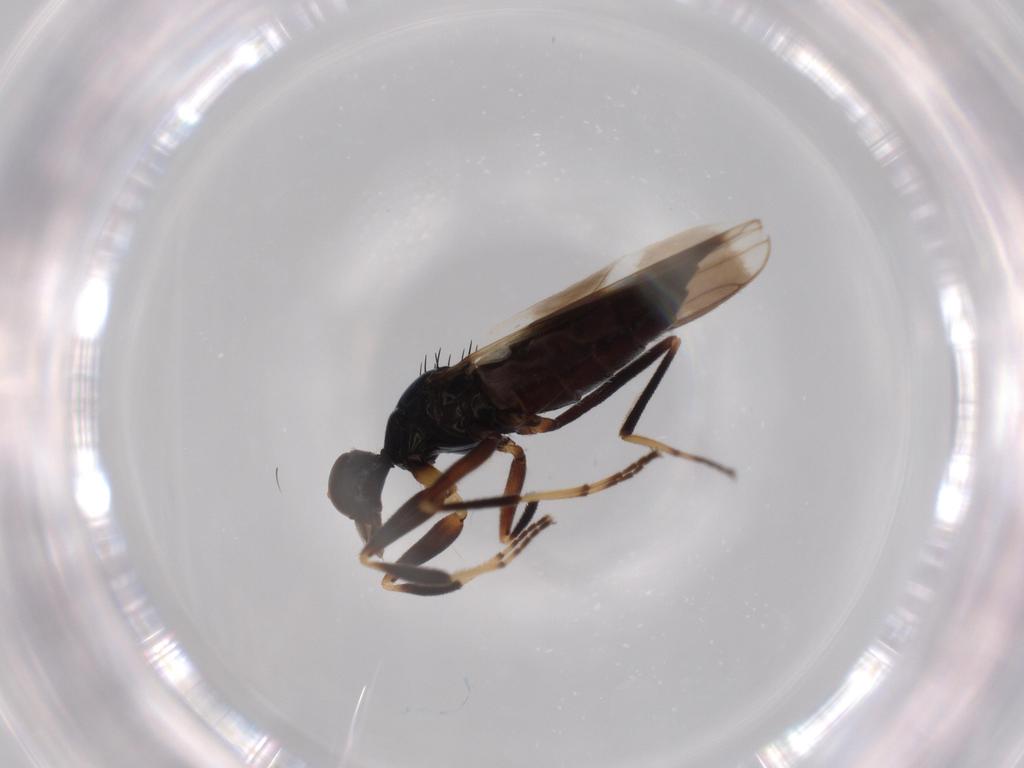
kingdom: Animalia
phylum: Arthropoda
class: Insecta
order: Diptera
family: Hybotidae
